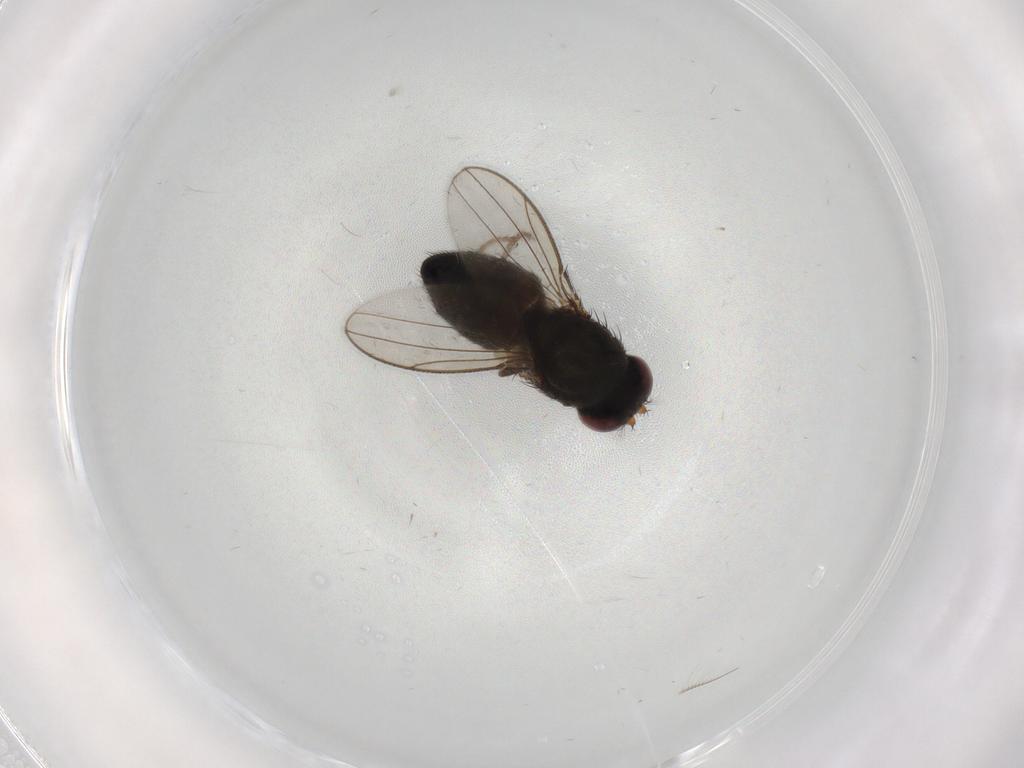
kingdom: Animalia
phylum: Arthropoda
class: Insecta
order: Diptera
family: Chironomidae
